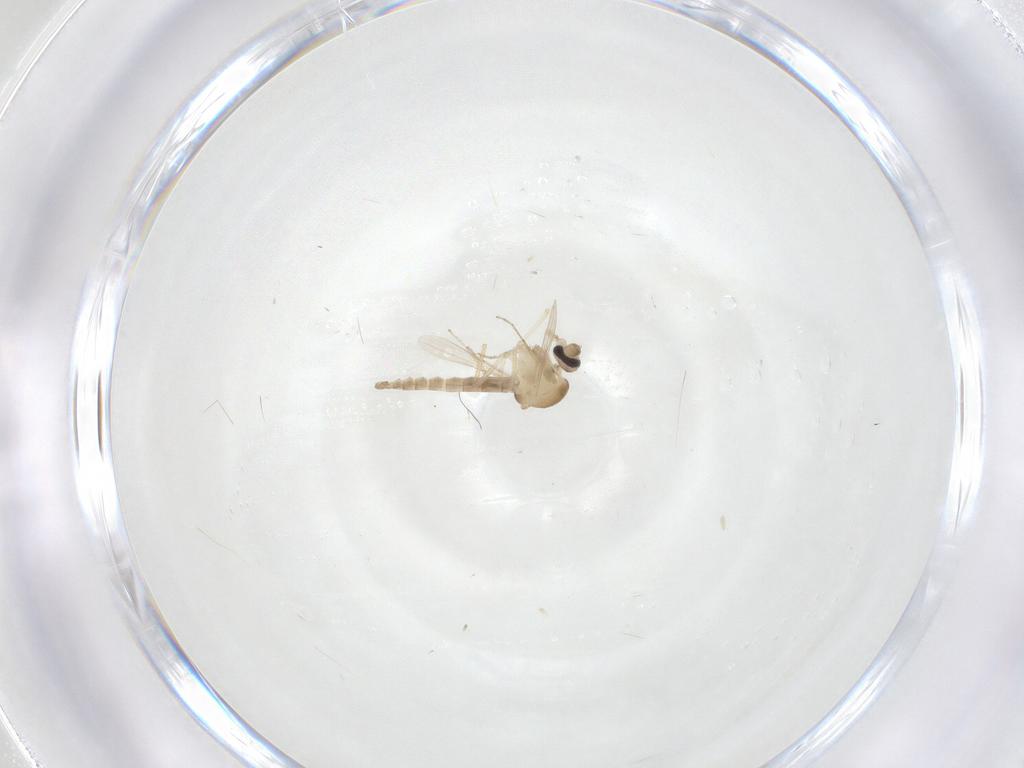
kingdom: Animalia
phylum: Arthropoda
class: Insecta
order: Diptera
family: Ceratopogonidae
